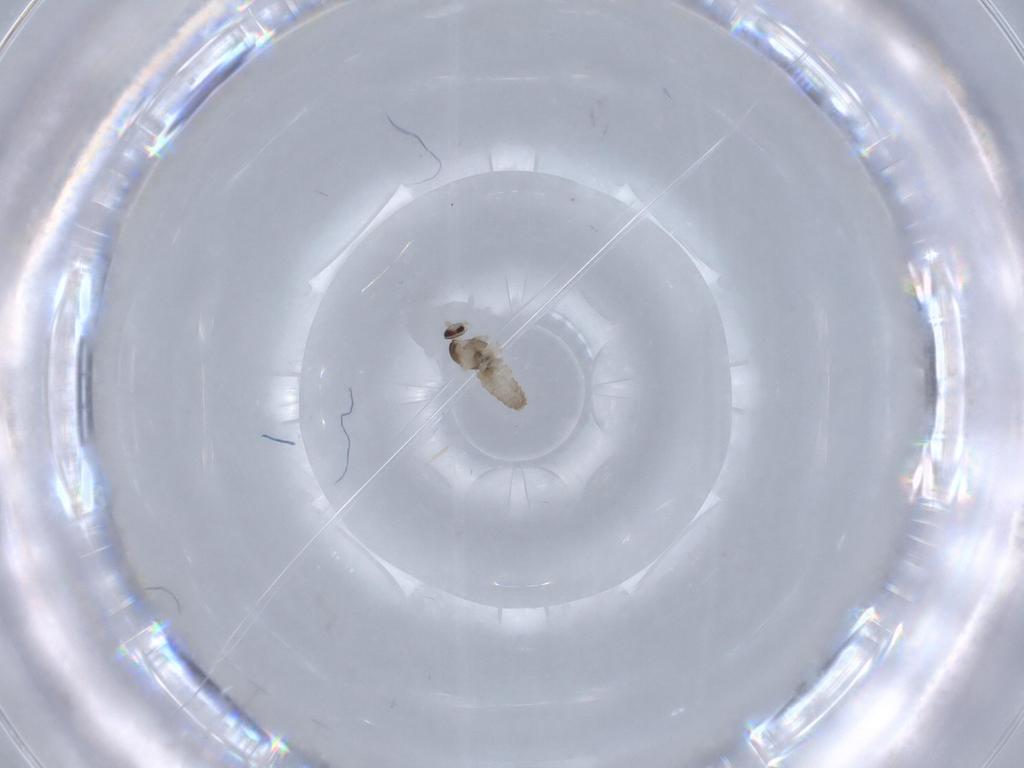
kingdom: Animalia
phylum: Arthropoda
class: Insecta
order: Diptera
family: Cecidomyiidae
